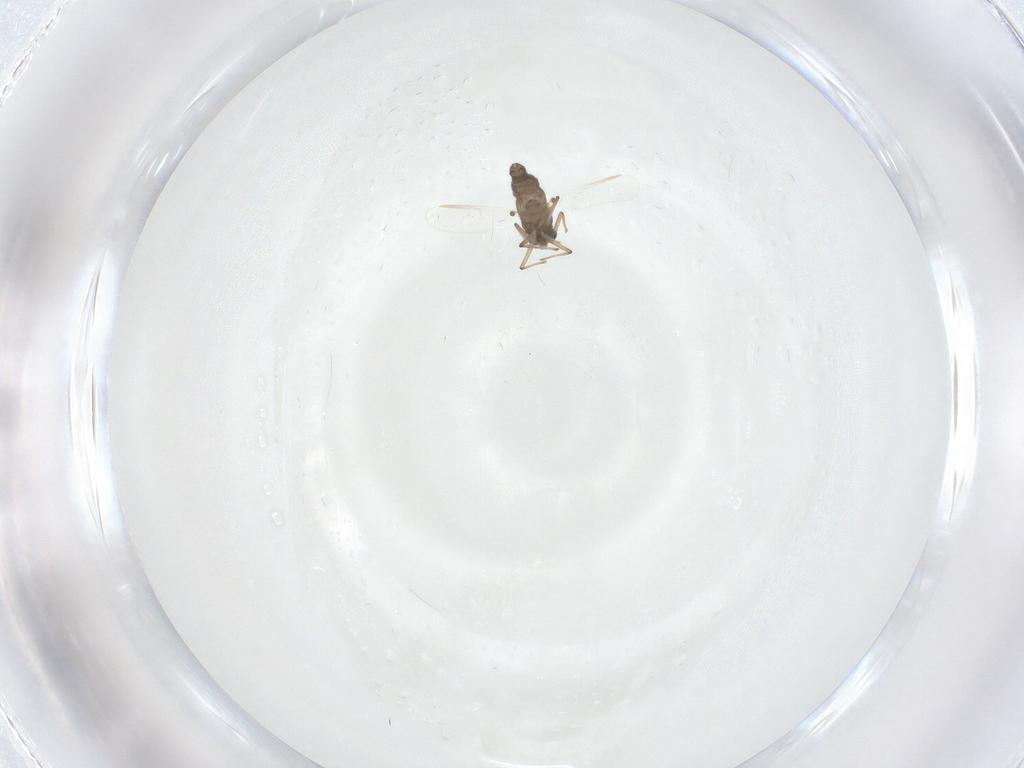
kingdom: Animalia
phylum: Arthropoda
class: Insecta
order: Diptera
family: Chironomidae
